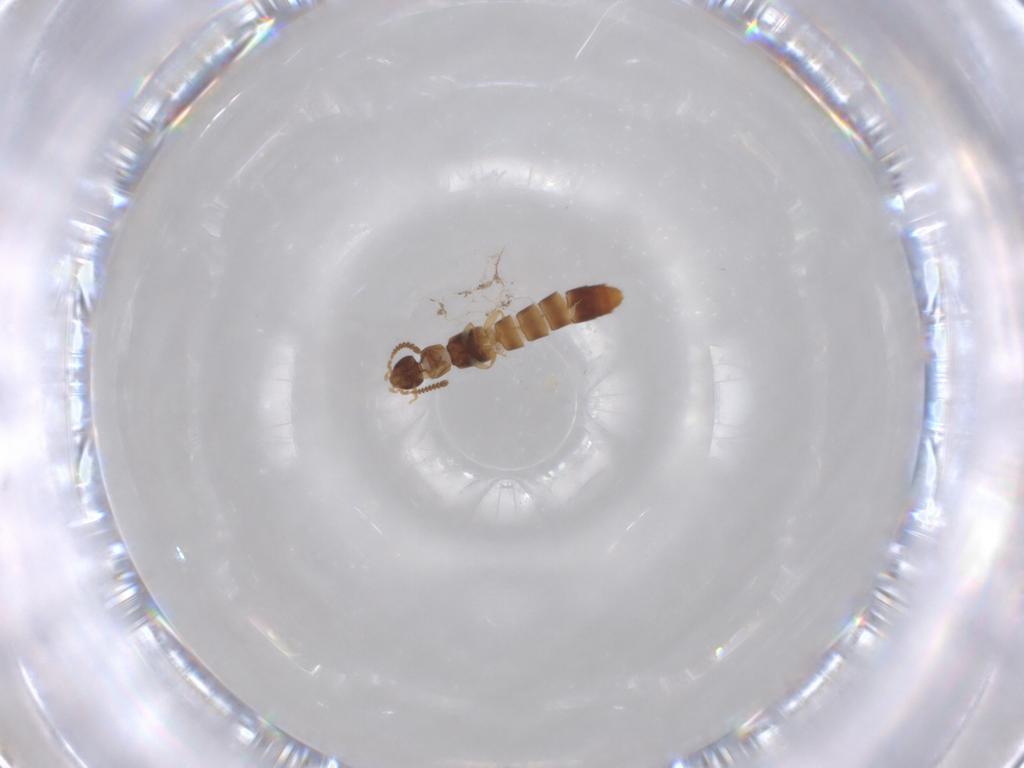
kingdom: Animalia
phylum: Arthropoda
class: Insecta
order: Coleoptera
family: Staphylinidae
